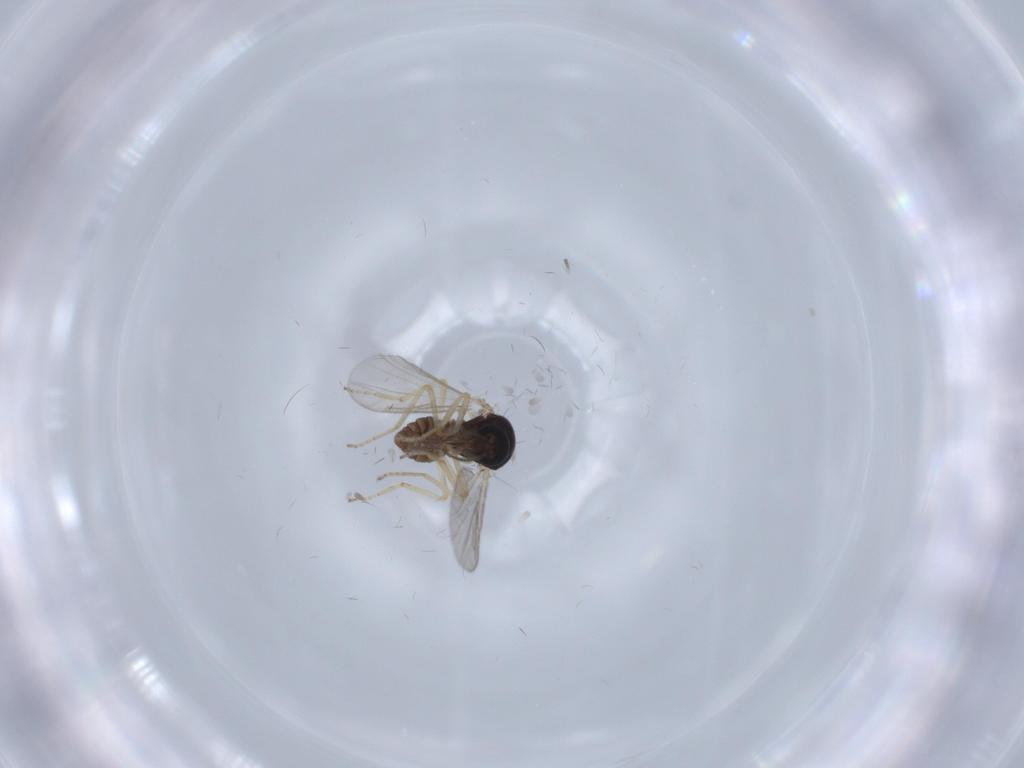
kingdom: Animalia
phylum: Arthropoda
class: Insecta
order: Diptera
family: Ceratopogonidae
